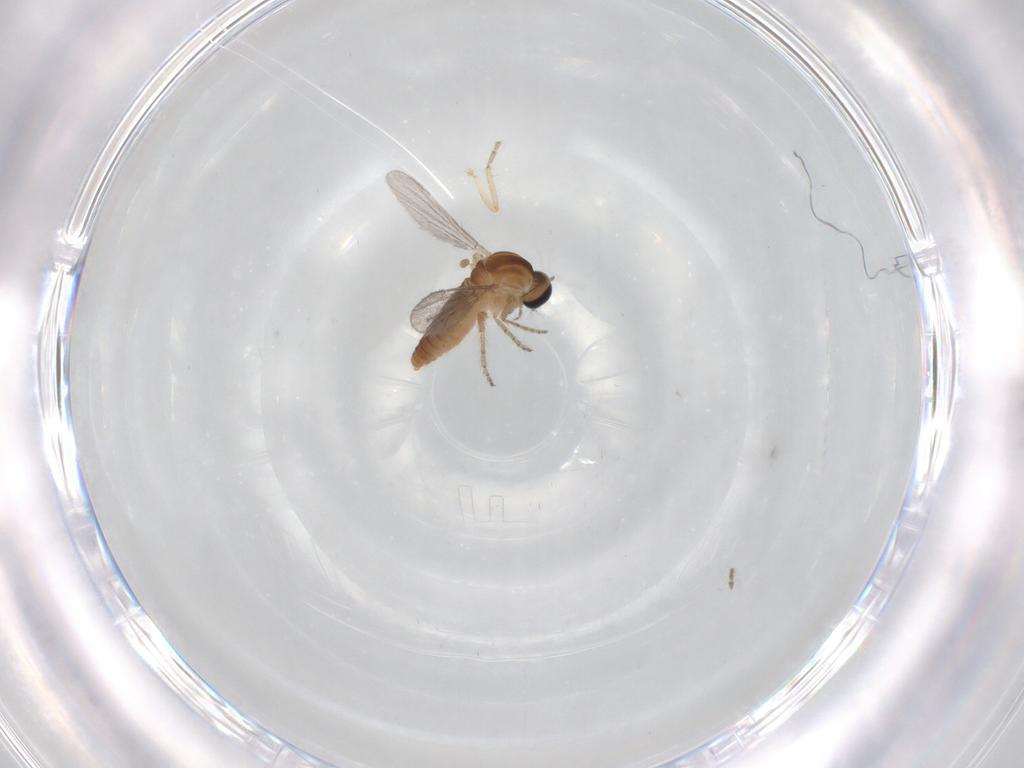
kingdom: Animalia
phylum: Arthropoda
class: Insecta
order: Diptera
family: Ceratopogonidae
